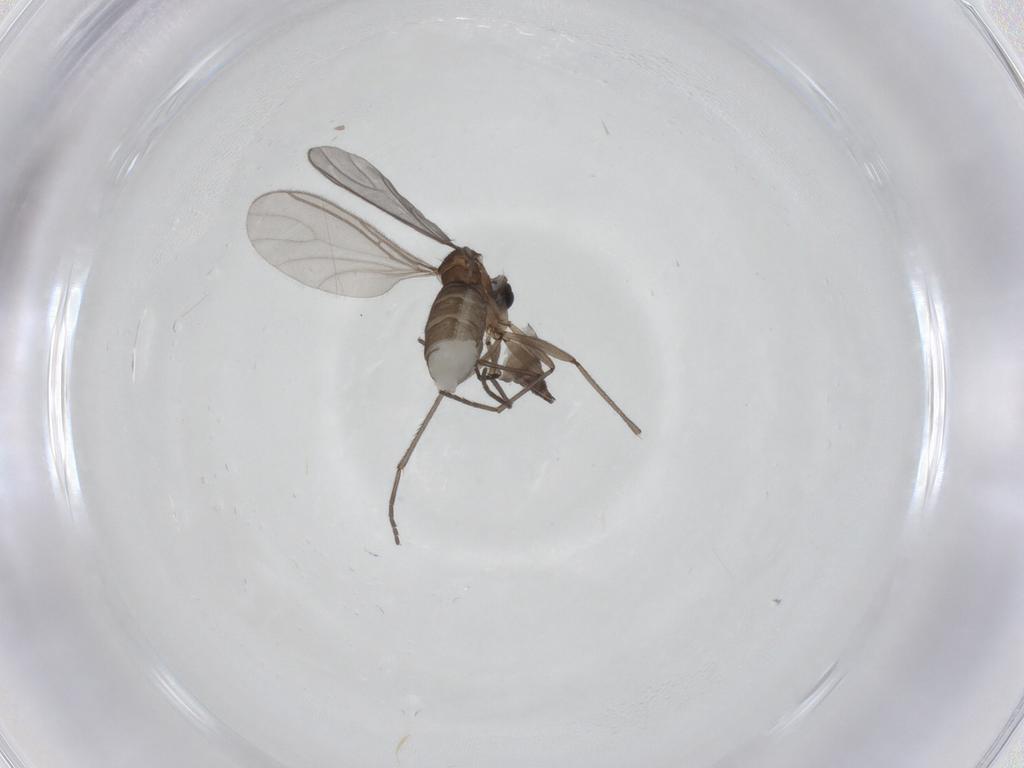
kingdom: Animalia
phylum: Arthropoda
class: Insecta
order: Diptera
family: Sciaridae
